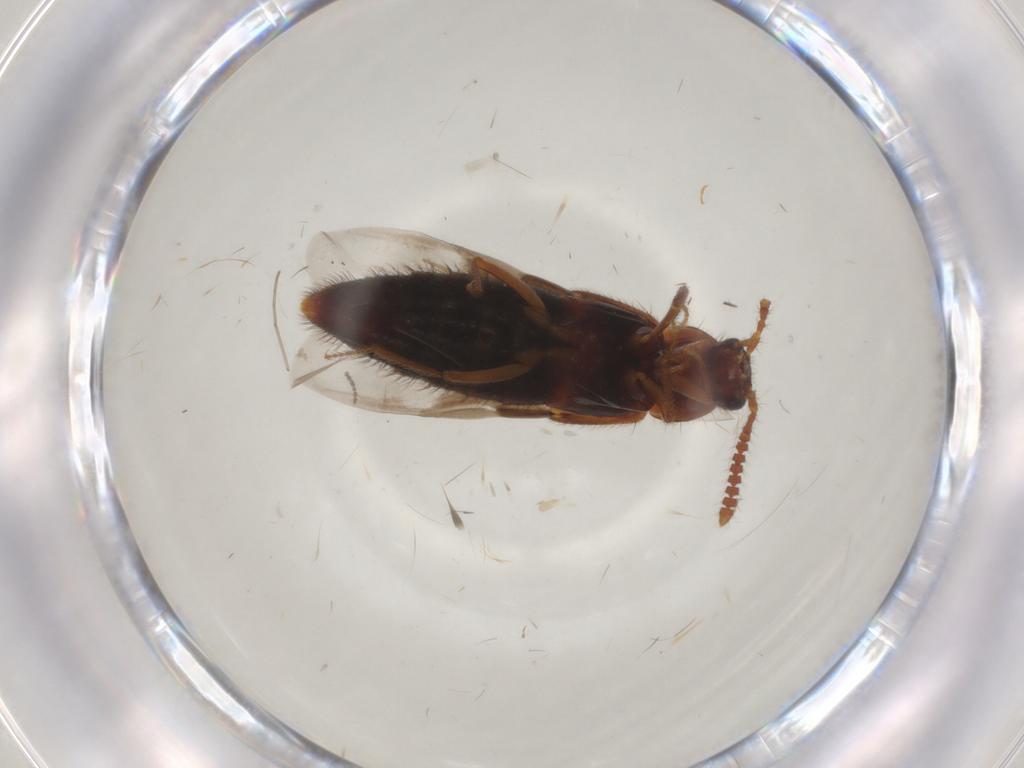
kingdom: Animalia
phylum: Arthropoda
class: Insecta
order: Coleoptera
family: Staphylinidae
